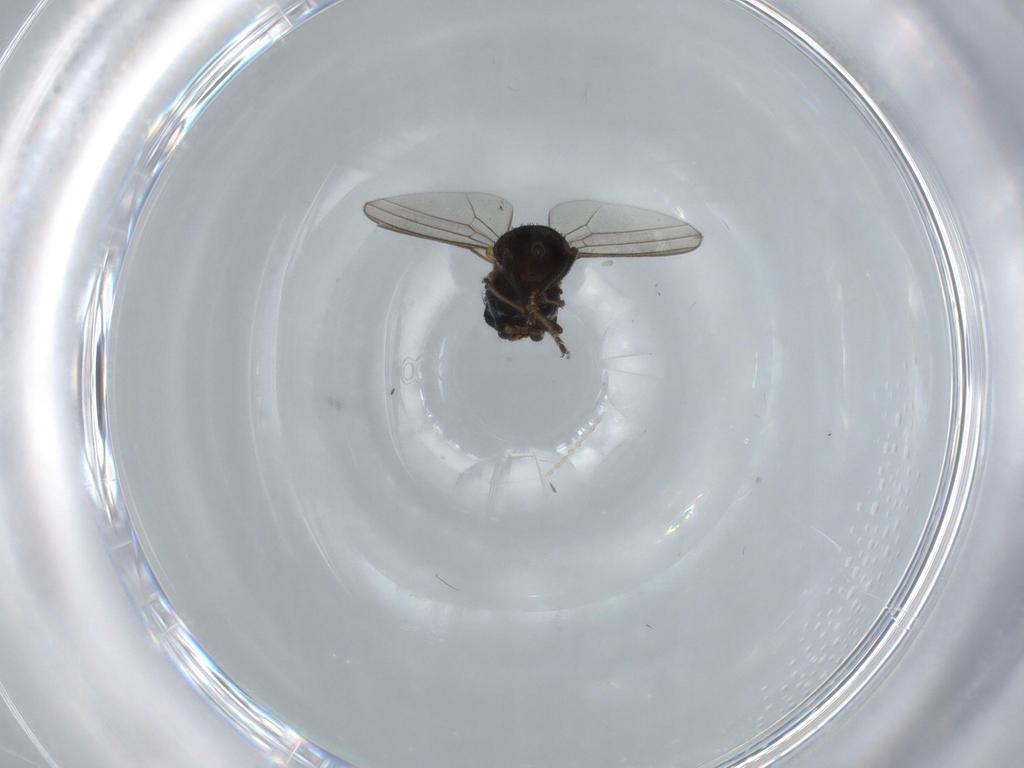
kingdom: Animalia
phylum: Arthropoda
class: Insecta
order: Diptera
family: Milichiidae
